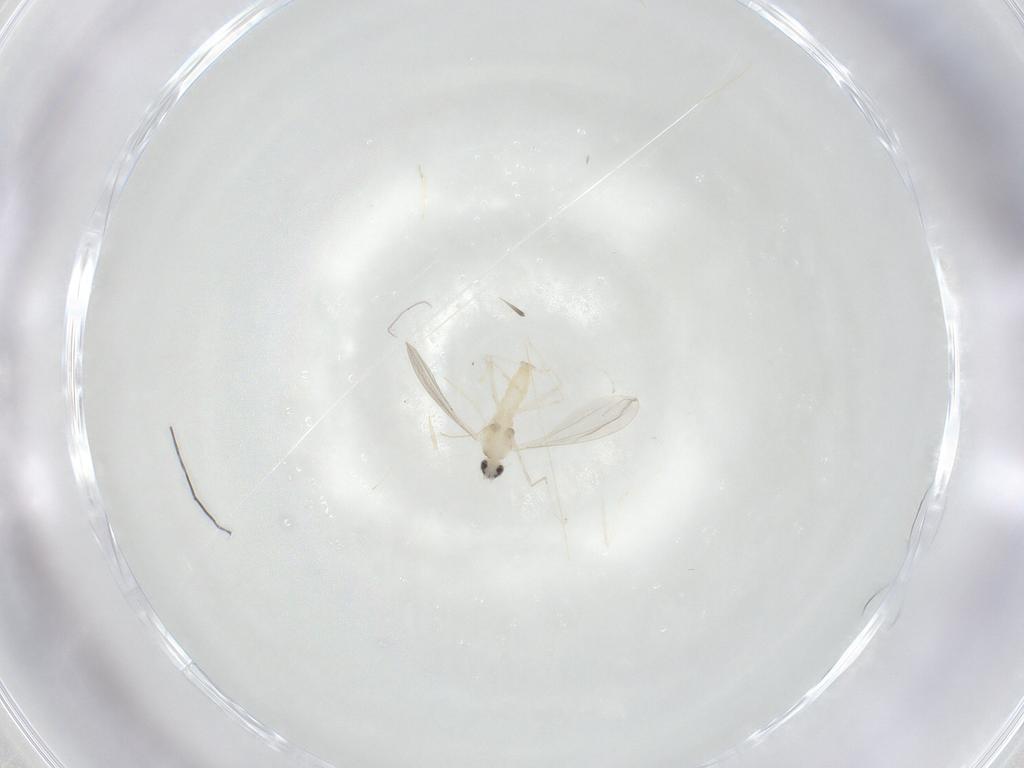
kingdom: Animalia
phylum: Arthropoda
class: Insecta
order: Diptera
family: Cecidomyiidae
